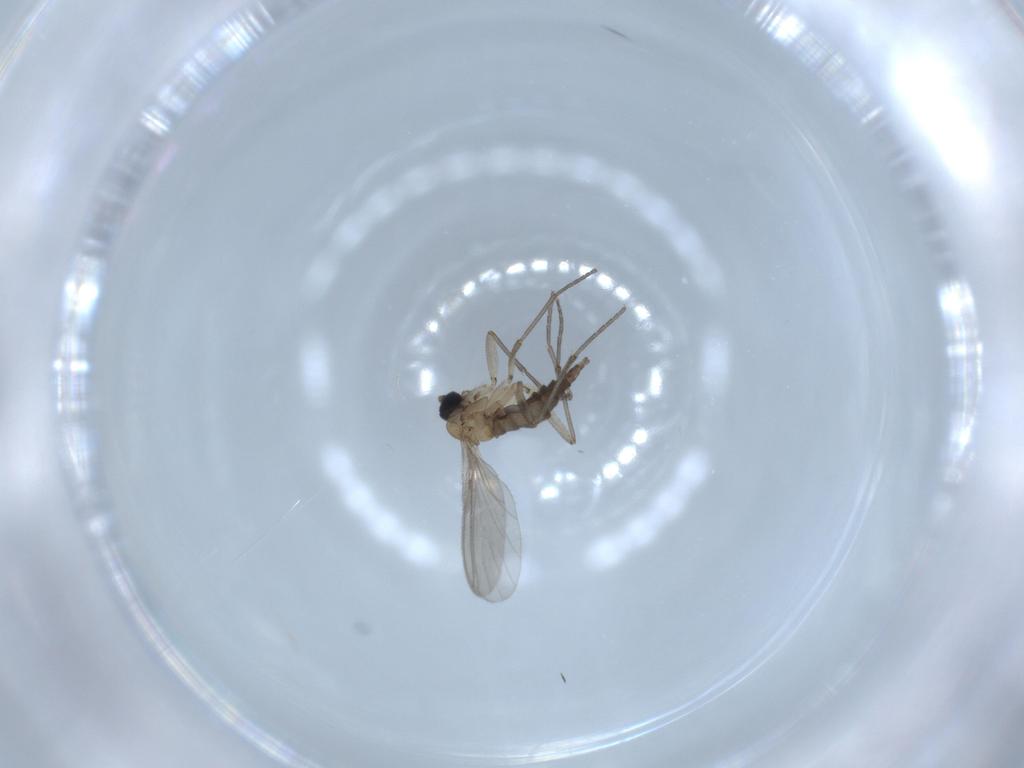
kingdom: Animalia
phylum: Arthropoda
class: Insecta
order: Diptera
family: Sciaridae
